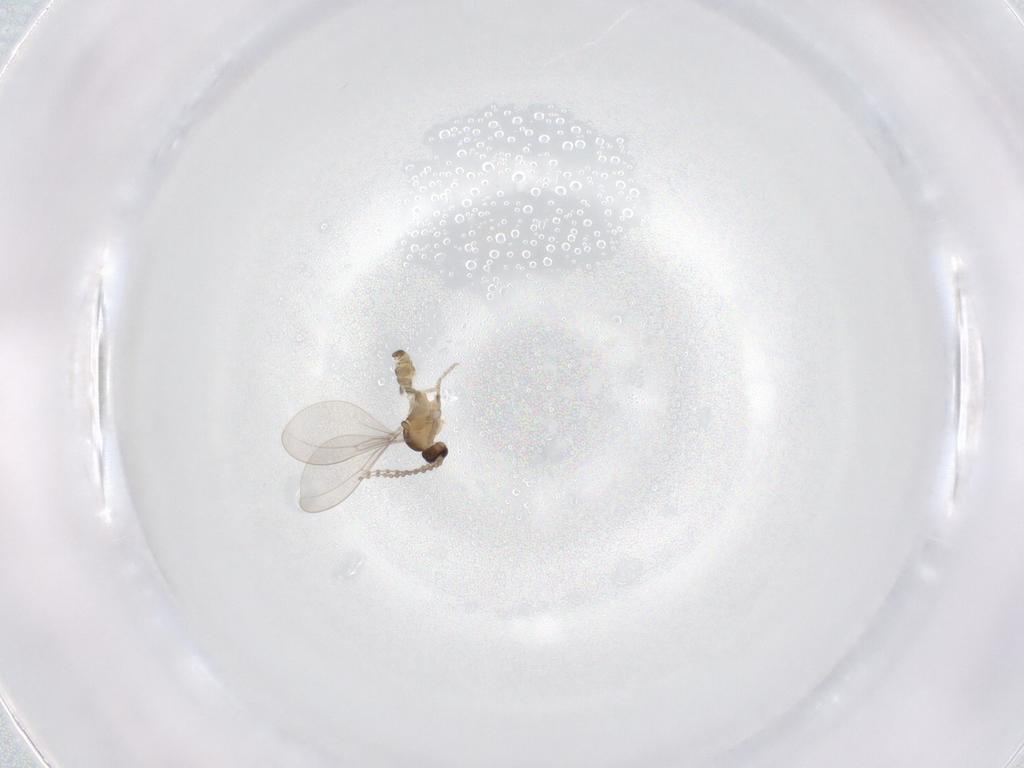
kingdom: Animalia
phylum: Arthropoda
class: Insecta
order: Diptera
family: Cecidomyiidae
